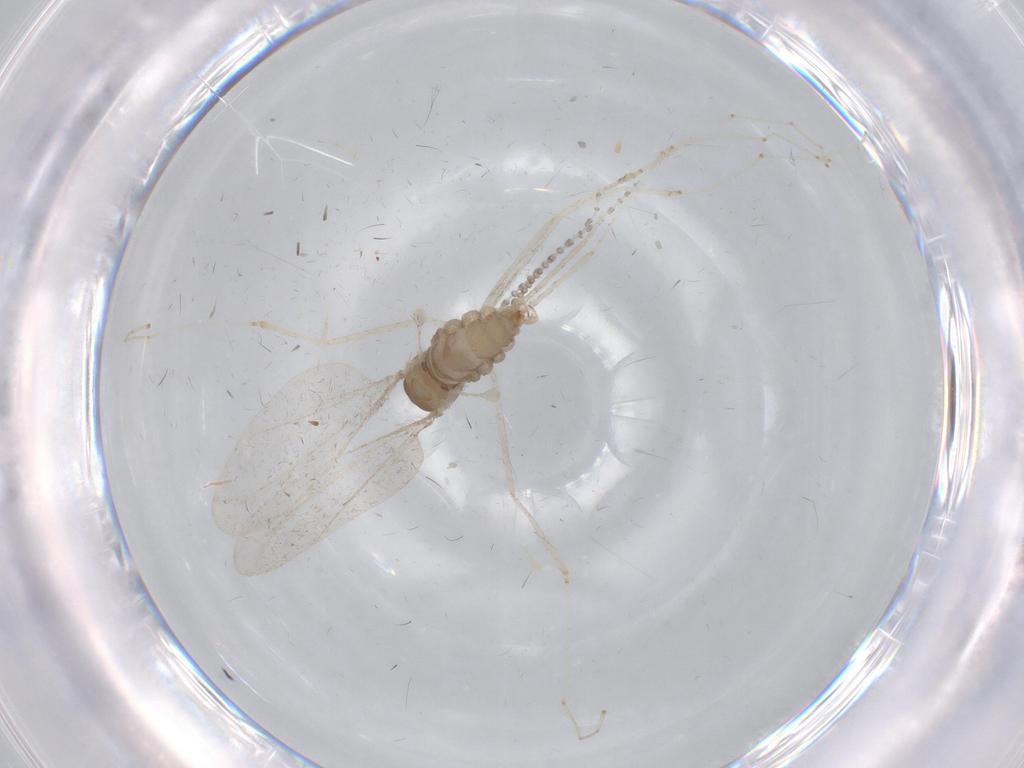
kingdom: Animalia
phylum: Arthropoda
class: Insecta
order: Diptera
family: Cecidomyiidae
